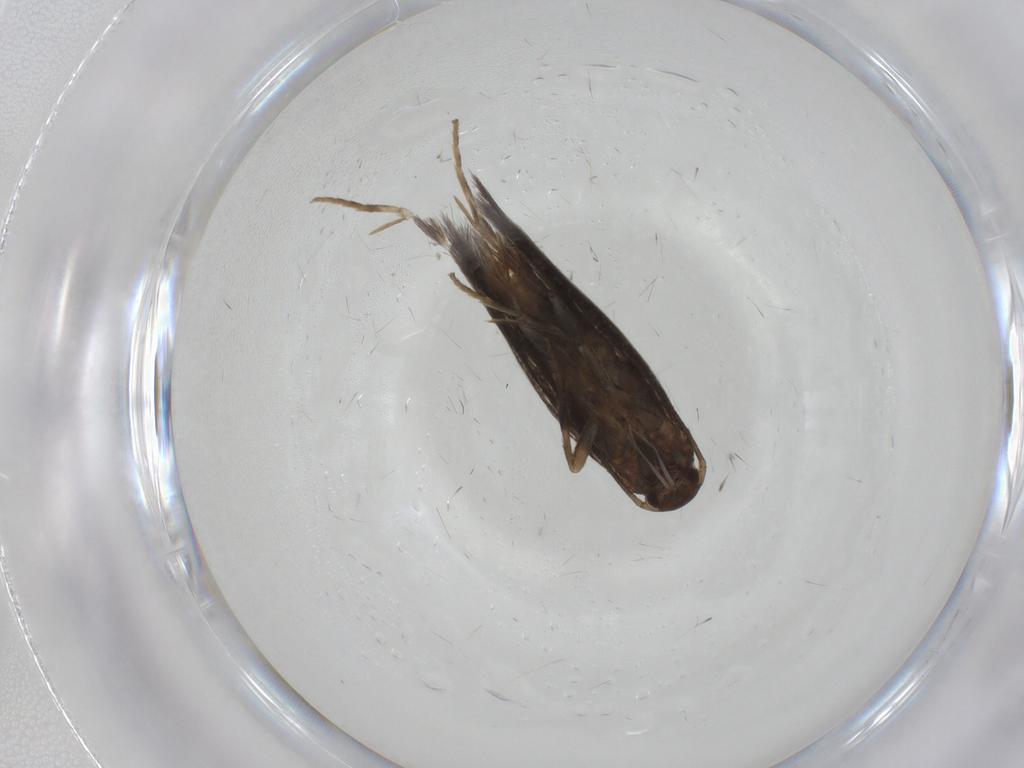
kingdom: Animalia
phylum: Arthropoda
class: Insecta
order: Lepidoptera
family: Elachistidae
